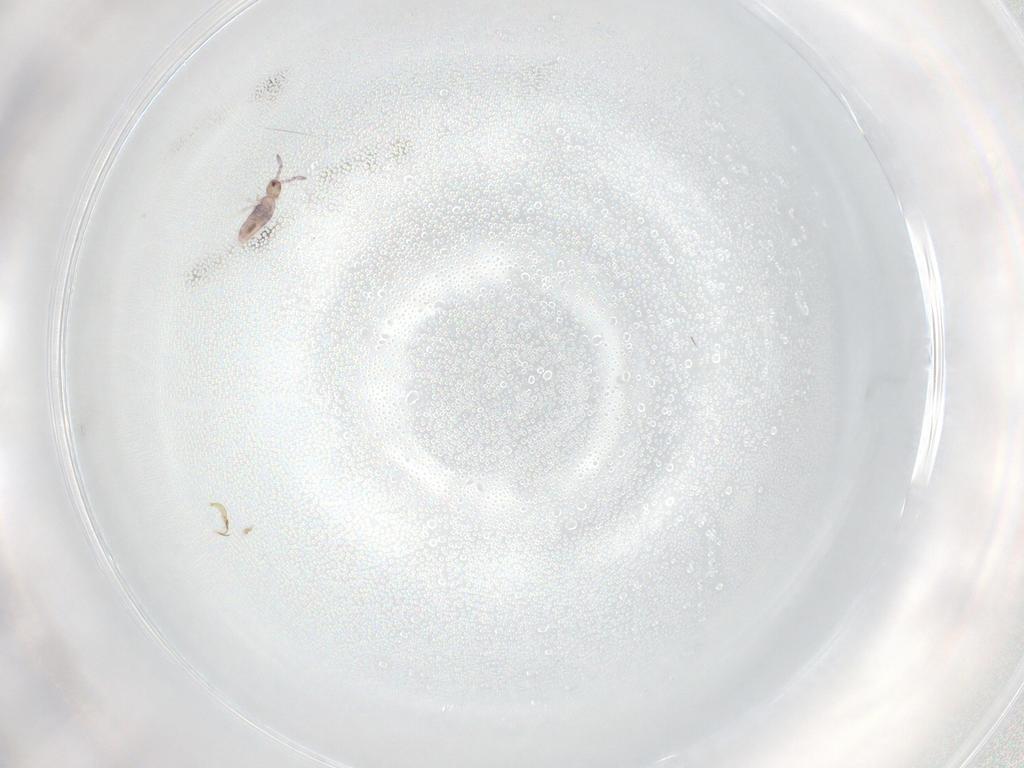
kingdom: Animalia
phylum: Arthropoda
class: Collembola
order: Entomobryomorpha
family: Entomobryidae
